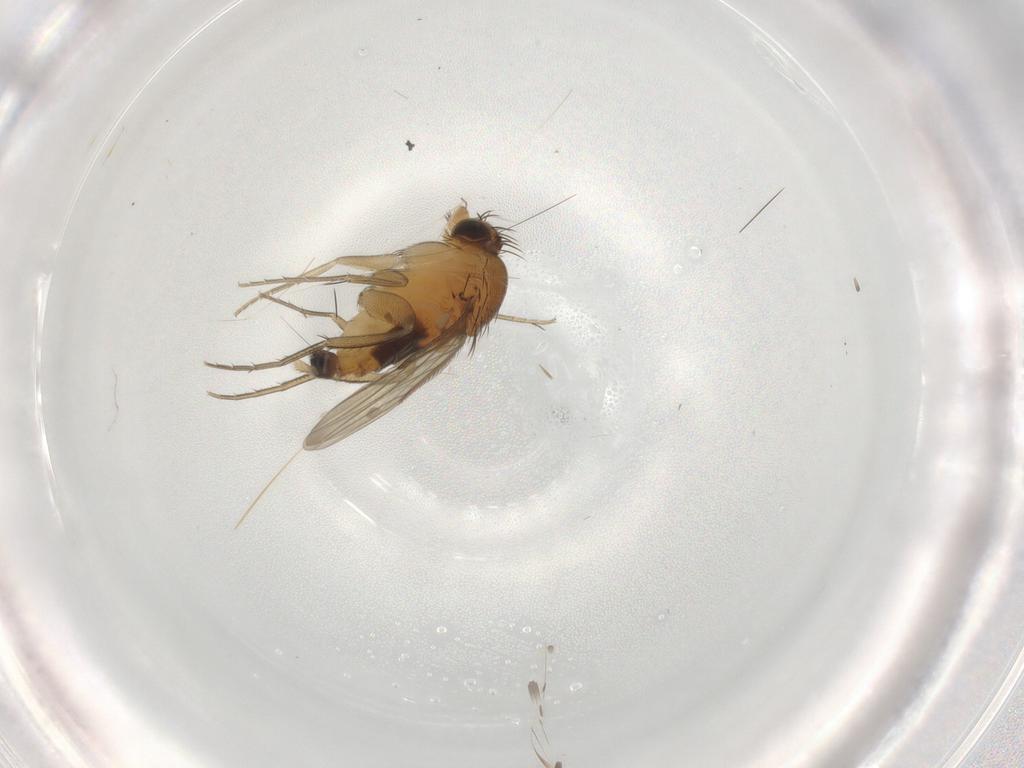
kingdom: Animalia
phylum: Arthropoda
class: Insecta
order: Diptera
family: Phoridae
